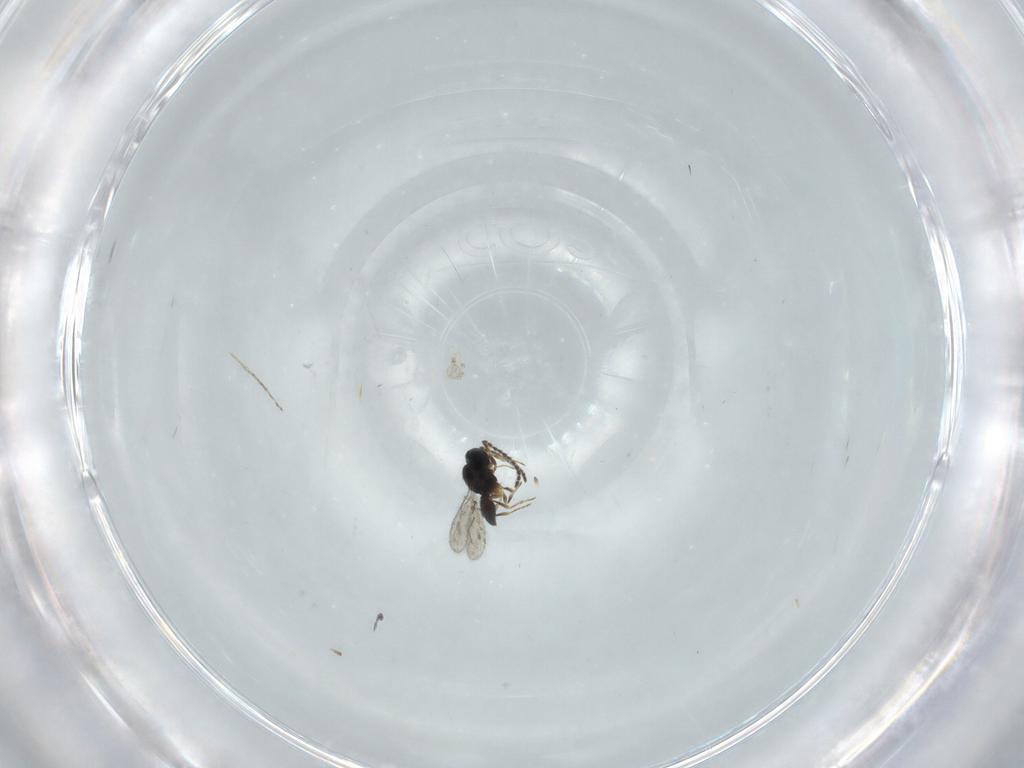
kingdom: Animalia
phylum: Arthropoda
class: Insecta
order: Hymenoptera
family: Scelionidae
